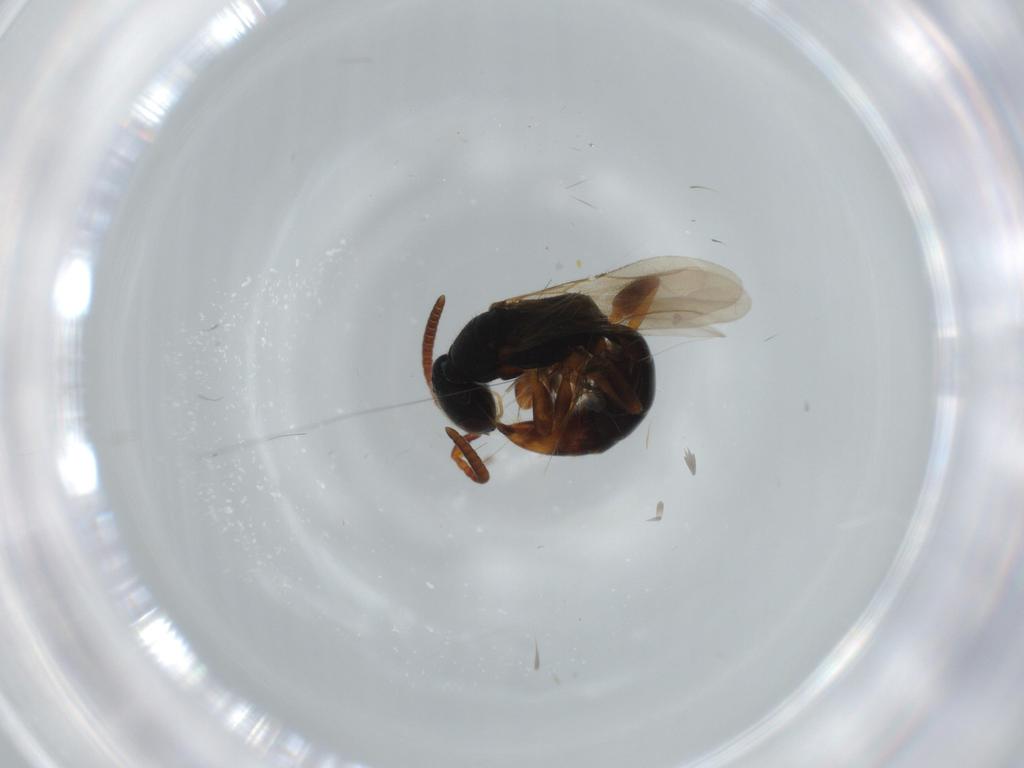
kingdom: Animalia
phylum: Arthropoda
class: Insecta
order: Hymenoptera
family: Bethylidae
